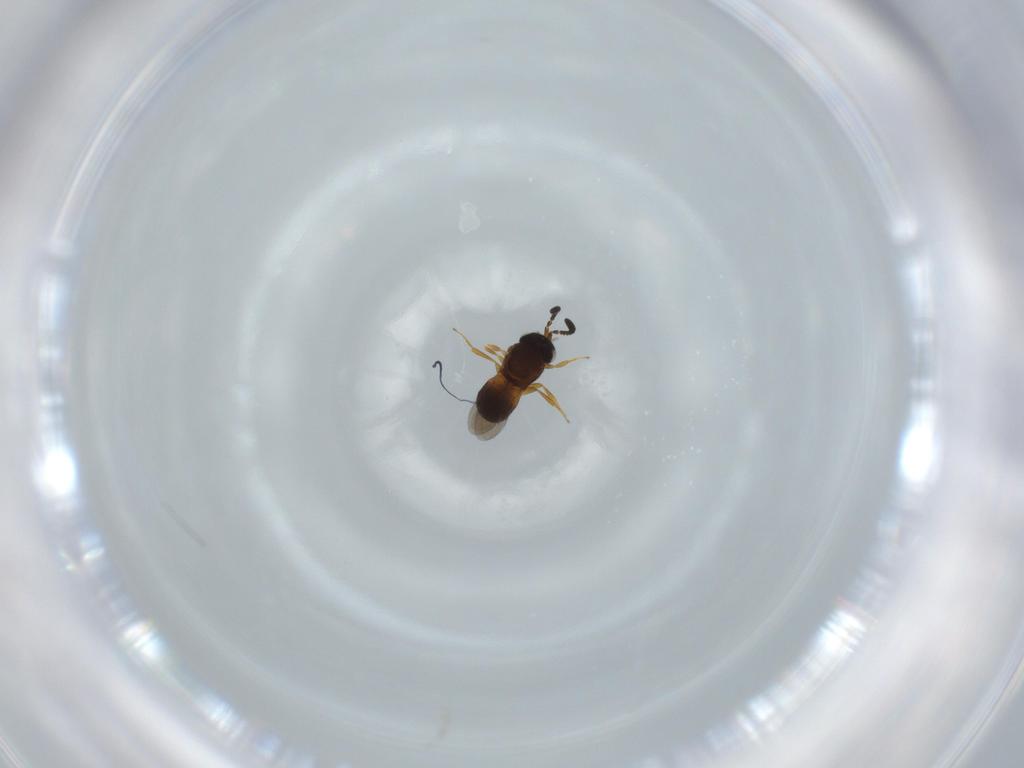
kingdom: Animalia
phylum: Arthropoda
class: Insecta
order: Hymenoptera
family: Scelionidae
